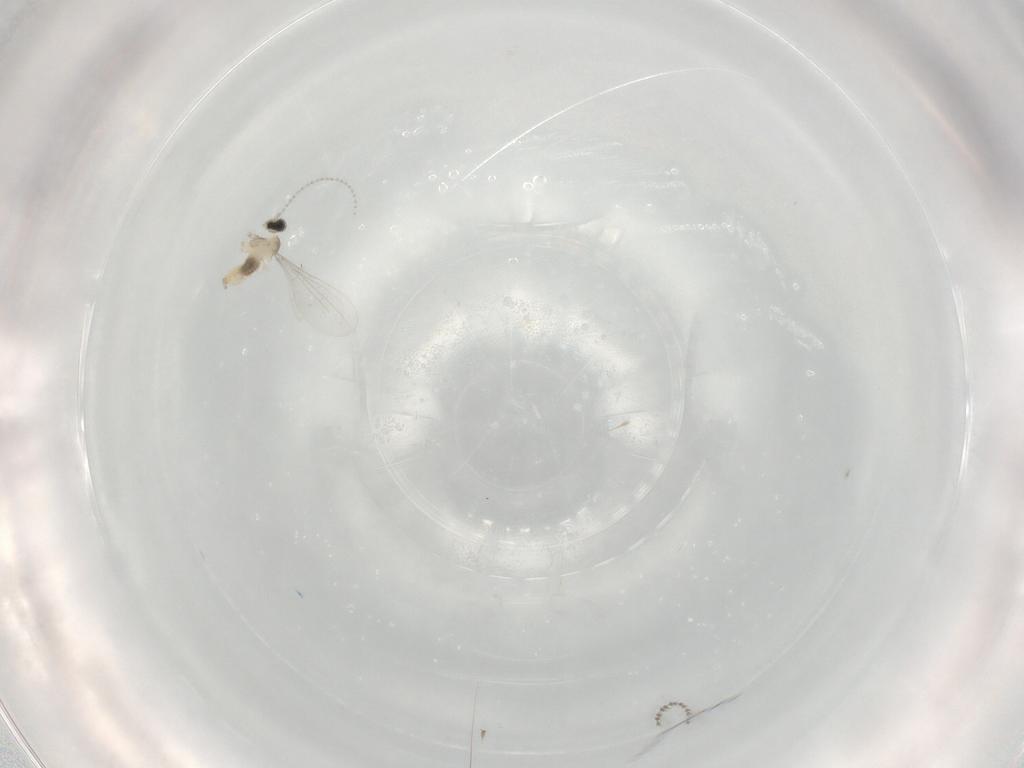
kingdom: Animalia
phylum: Arthropoda
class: Insecta
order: Diptera
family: Cecidomyiidae
